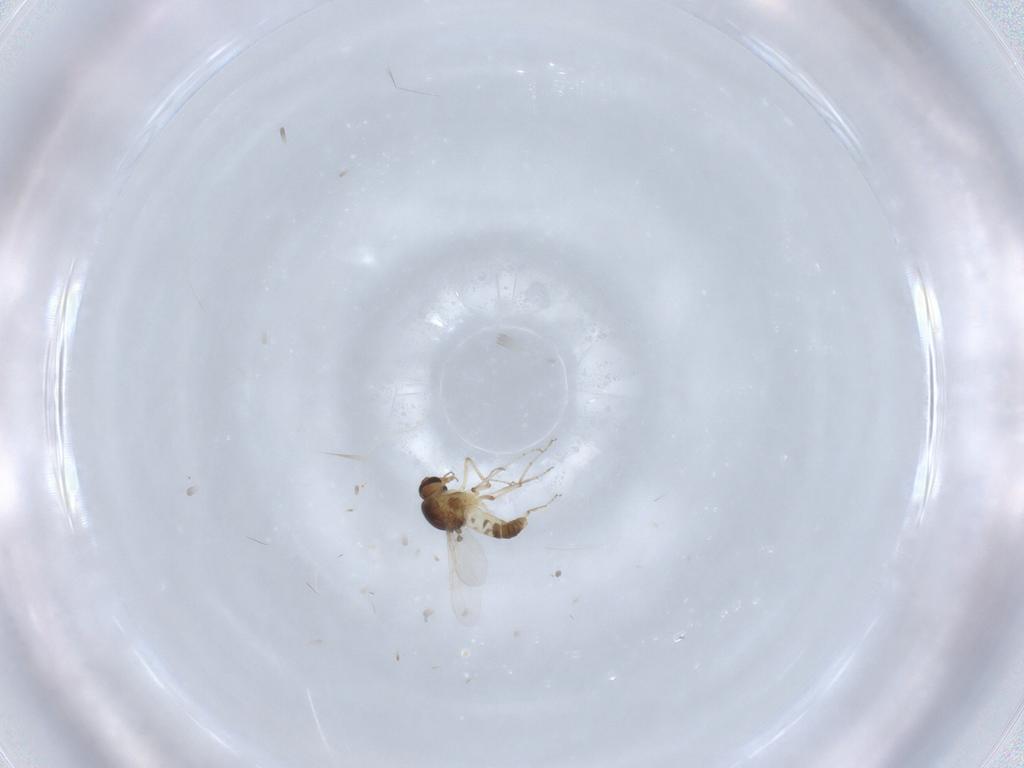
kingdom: Animalia
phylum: Arthropoda
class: Insecta
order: Diptera
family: Ceratopogonidae
